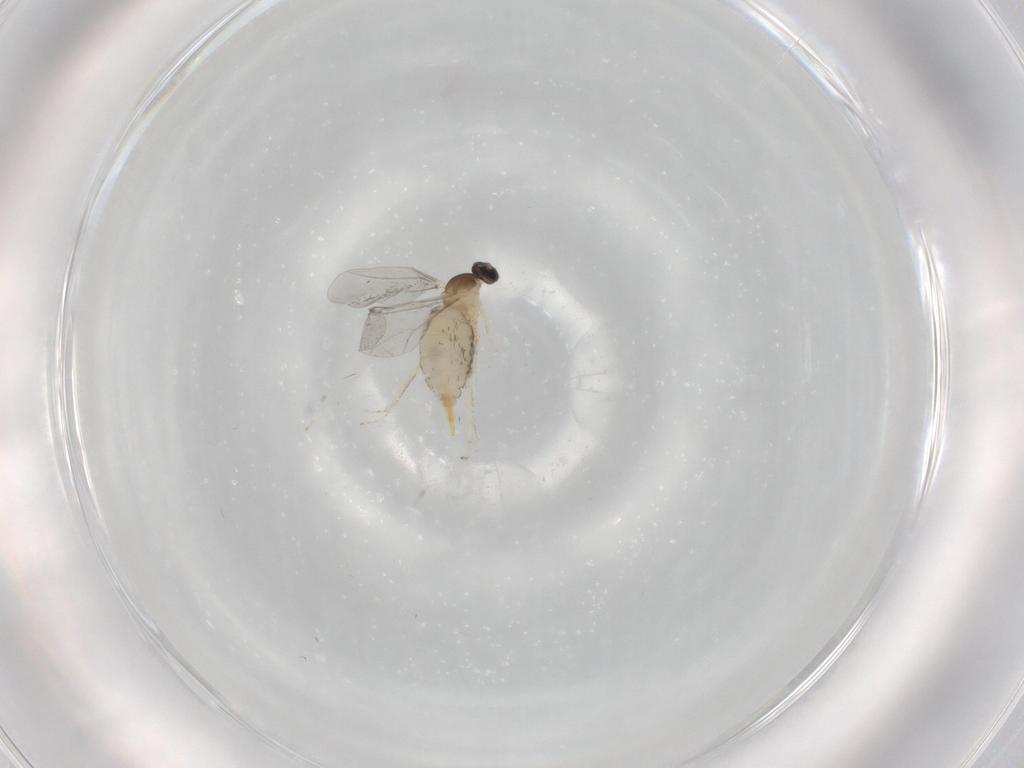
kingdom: Animalia
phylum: Arthropoda
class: Insecta
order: Diptera
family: Cecidomyiidae
